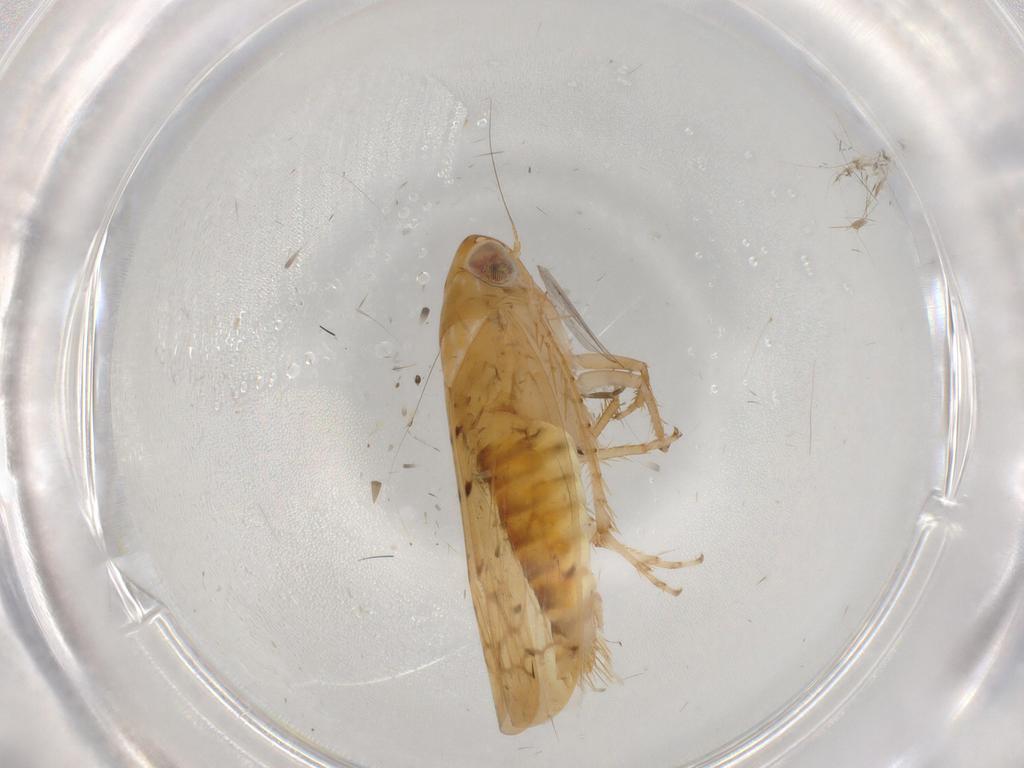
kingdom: Animalia
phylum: Arthropoda
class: Insecta
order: Hemiptera
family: Cicadellidae
